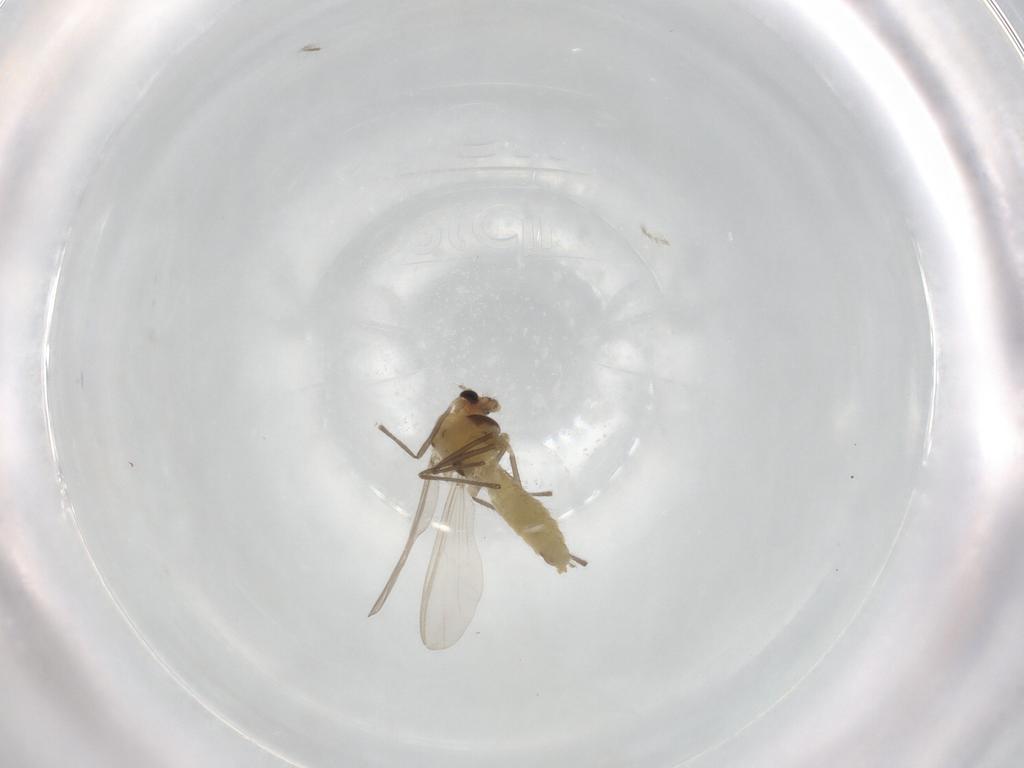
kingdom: Animalia
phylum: Arthropoda
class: Insecta
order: Diptera
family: Chironomidae
